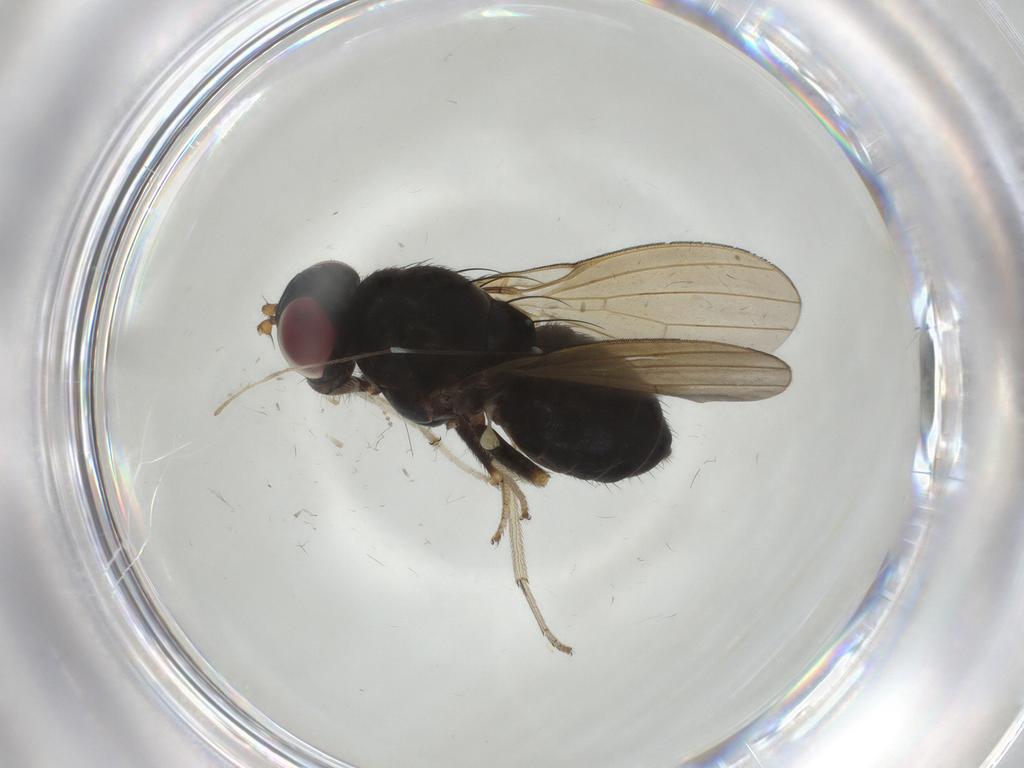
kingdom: Animalia
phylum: Arthropoda
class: Insecta
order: Diptera
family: Lauxaniidae
